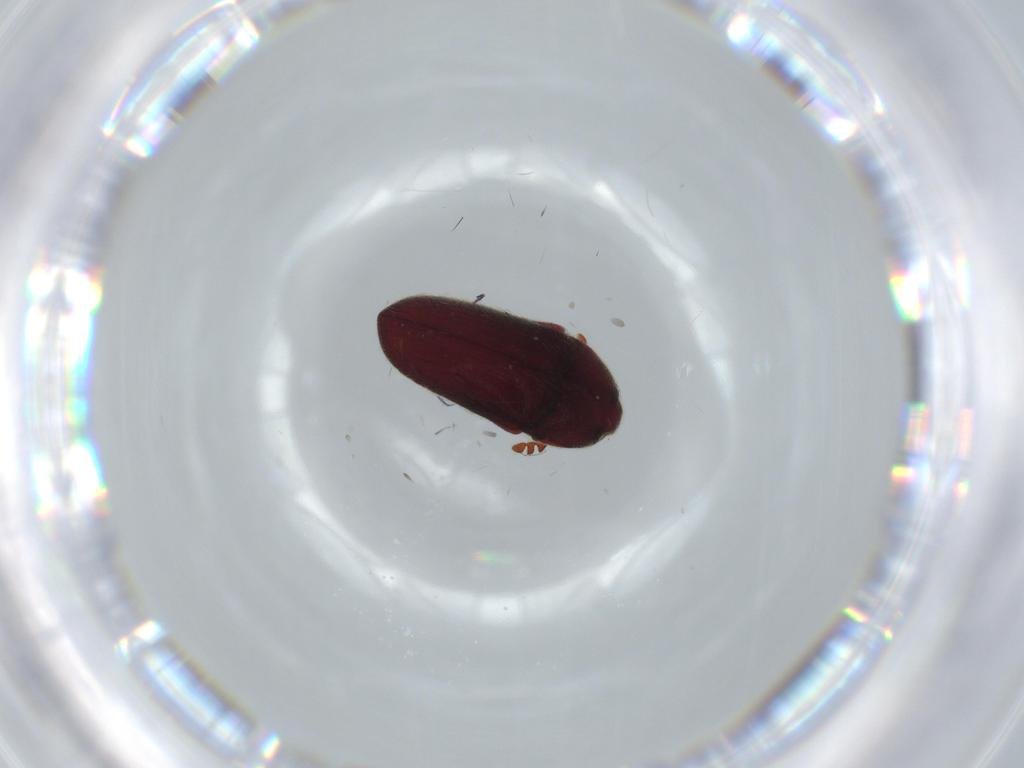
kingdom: Animalia
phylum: Arthropoda
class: Insecta
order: Coleoptera
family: Throscidae
